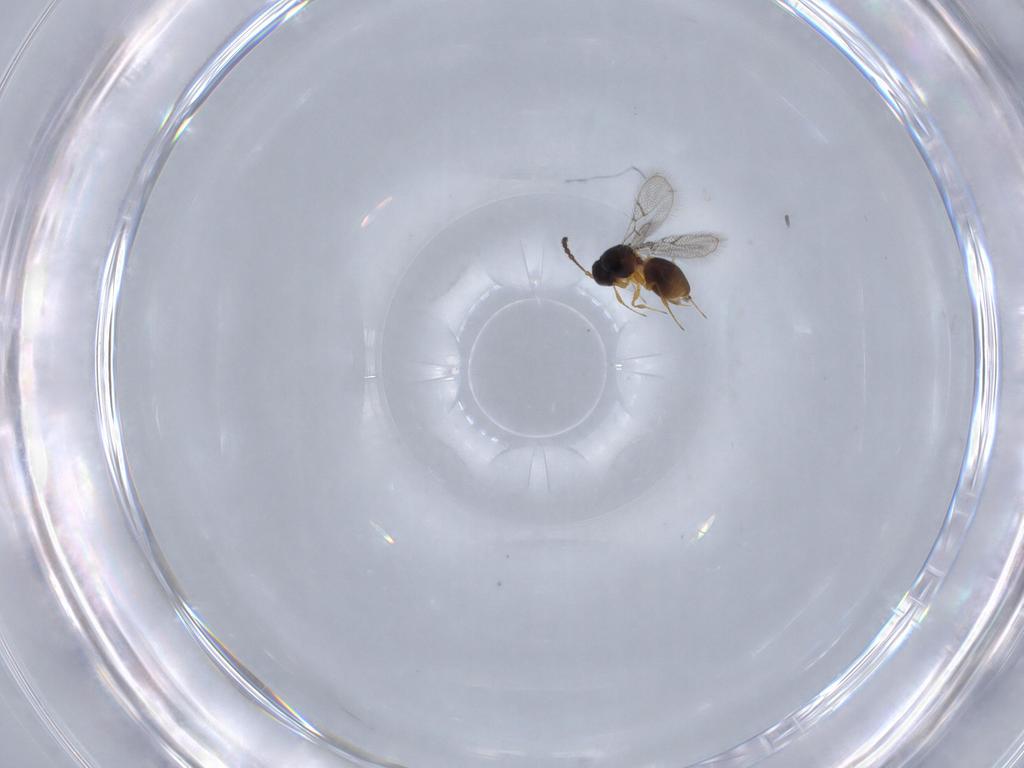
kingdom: Animalia
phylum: Arthropoda
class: Insecta
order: Hymenoptera
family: Figitidae
